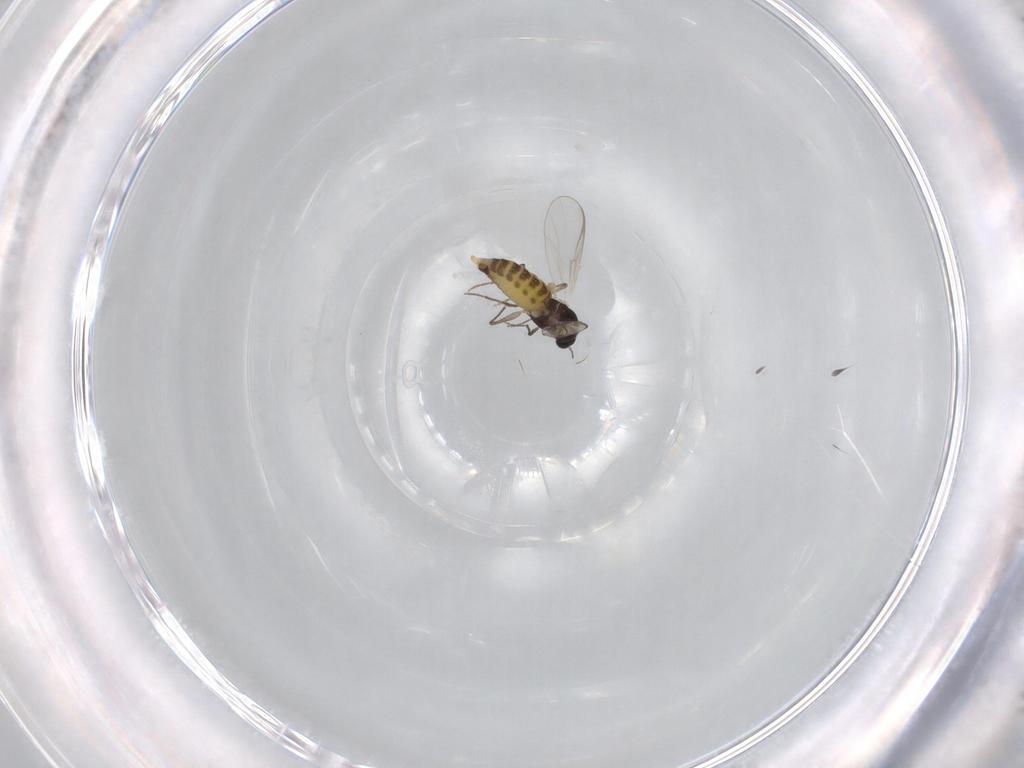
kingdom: Animalia
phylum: Arthropoda
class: Insecta
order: Diptera
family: Chironomidae
